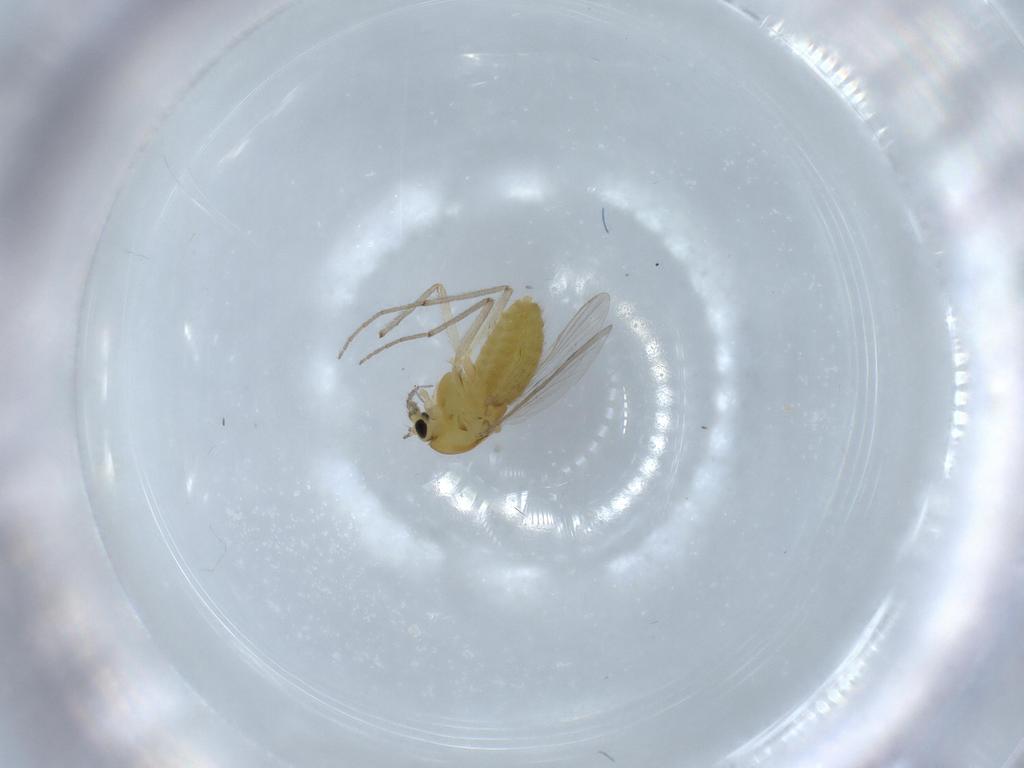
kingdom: Animalia
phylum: Arthropoda
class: Insecta
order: Diptera
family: Chironomidae
